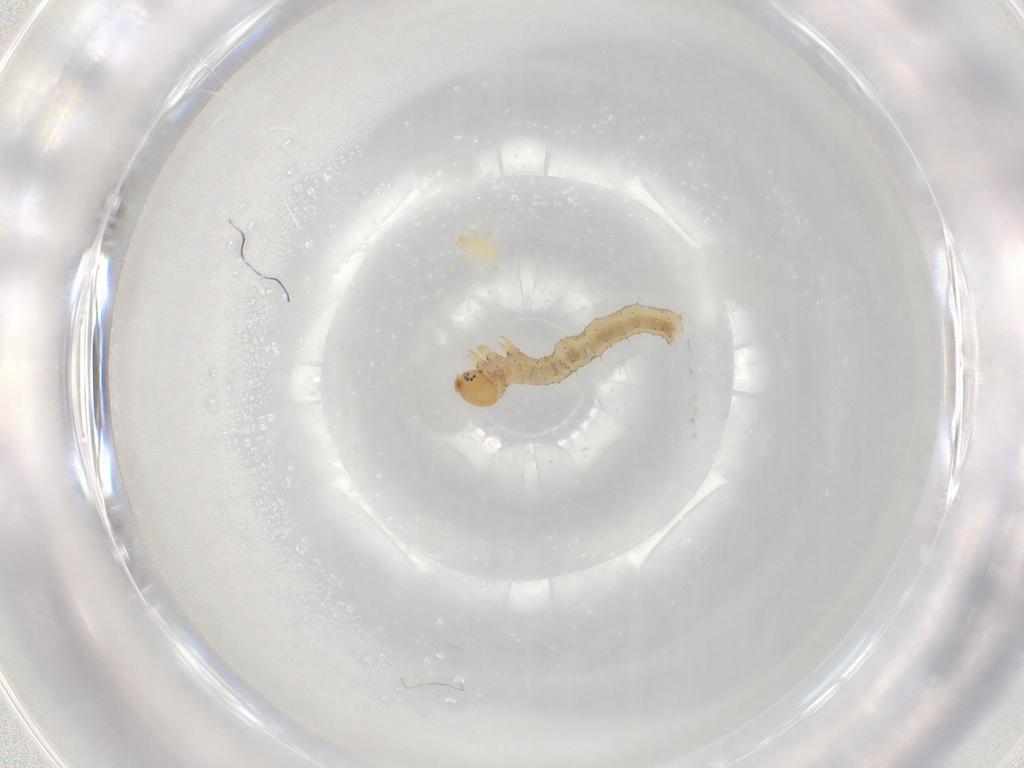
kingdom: Animalia
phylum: Arthropoda
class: Insecta
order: Lepidoptera
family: Geometridae
